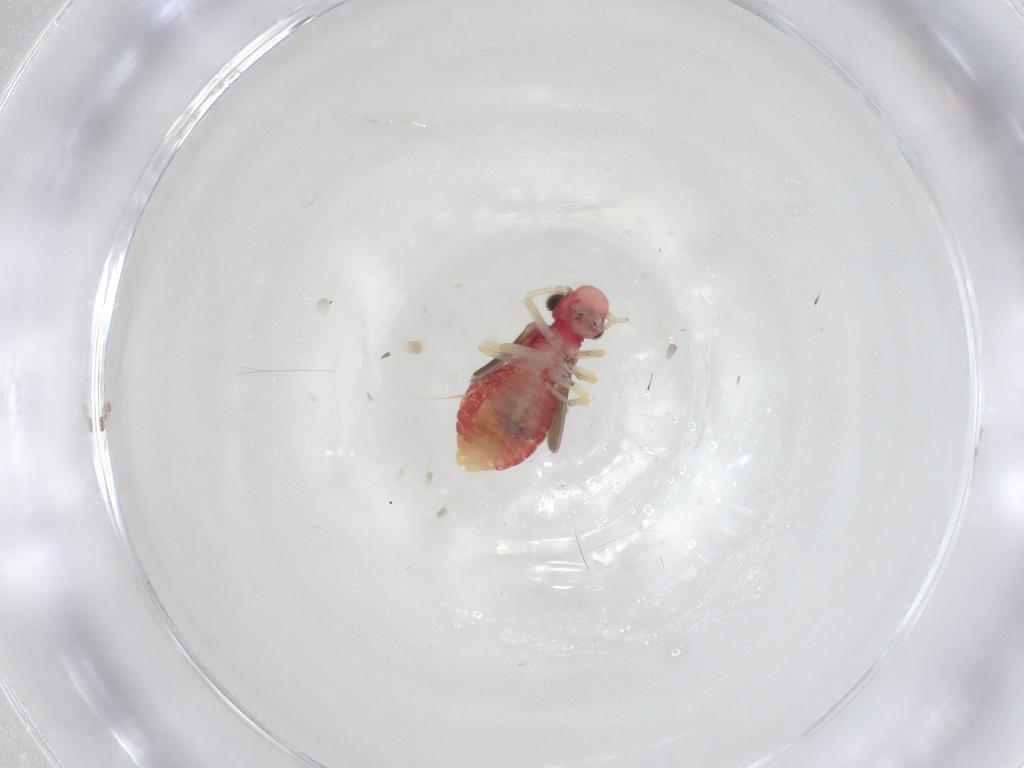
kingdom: Animalia
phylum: Arthropoda
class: Insecta
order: Psocodea
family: Caeciliusidae
